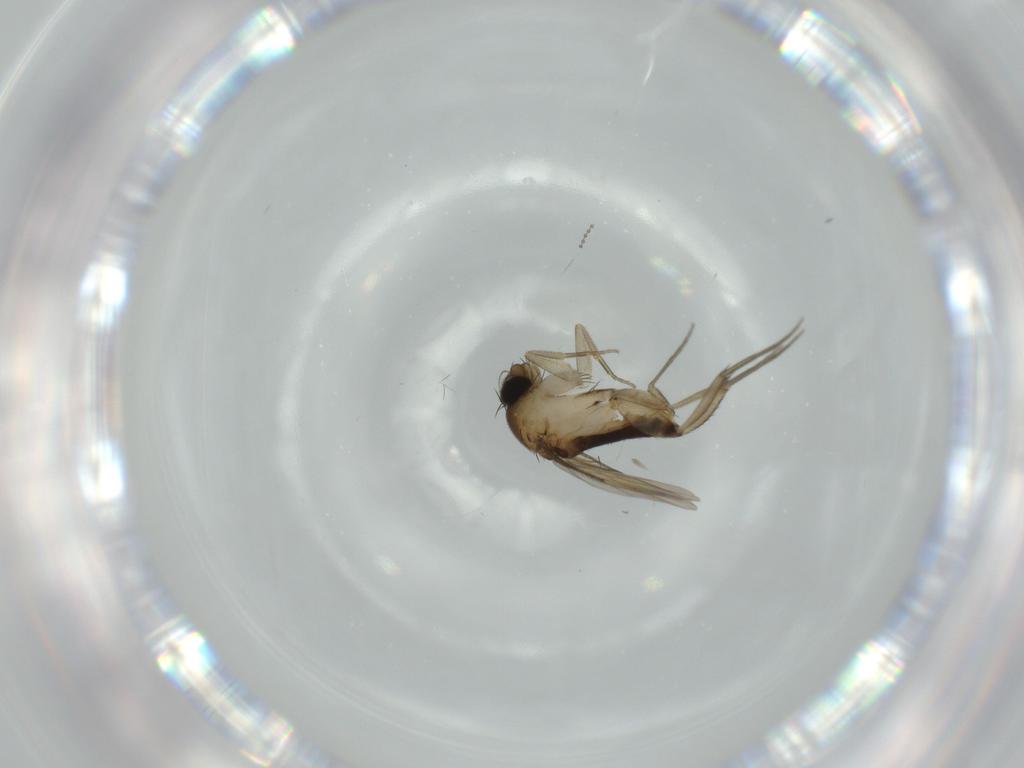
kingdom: Animalia
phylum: Arthropoda
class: Insecta
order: Diptera
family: Phoridae
